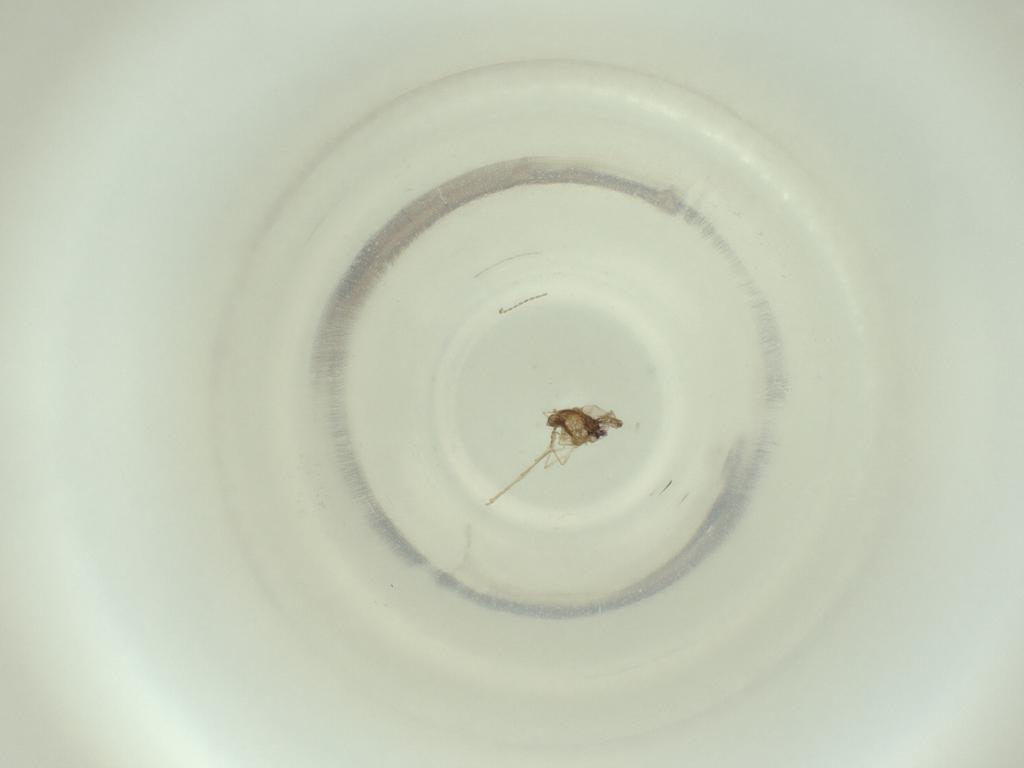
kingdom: Animalia
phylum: Arthropoda
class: Insecta
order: Diptera
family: Cecidomyiidae
